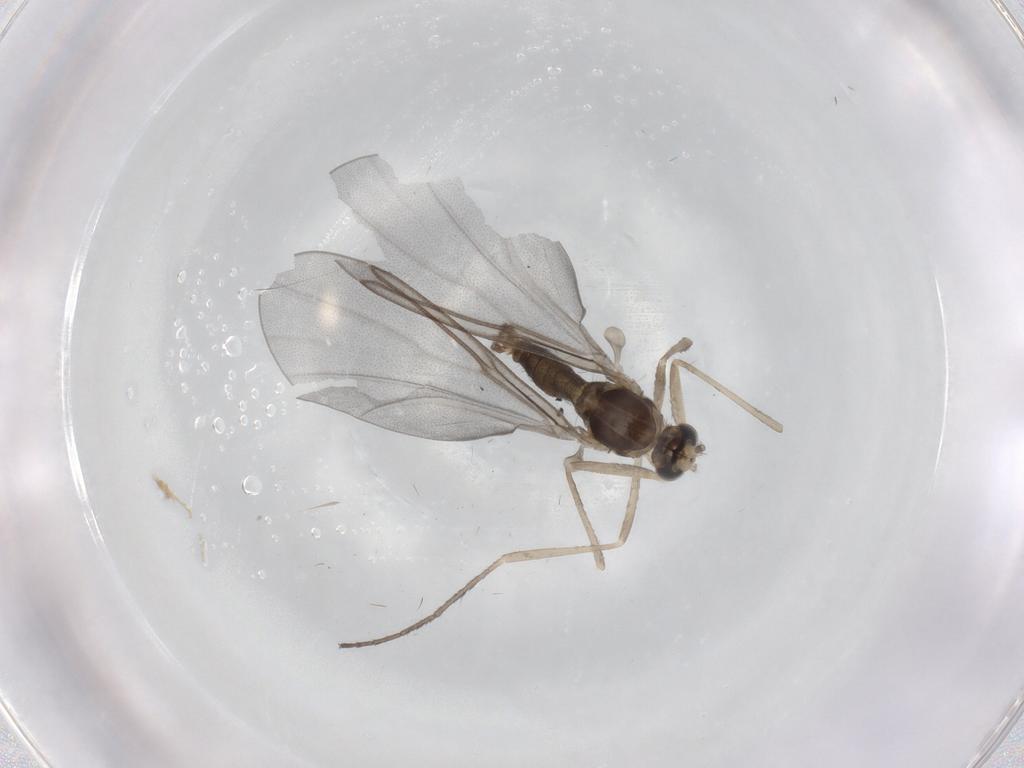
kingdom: Animalia
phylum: Arthropoda
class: Insecta
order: Diptera
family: Cecidomyiidae
